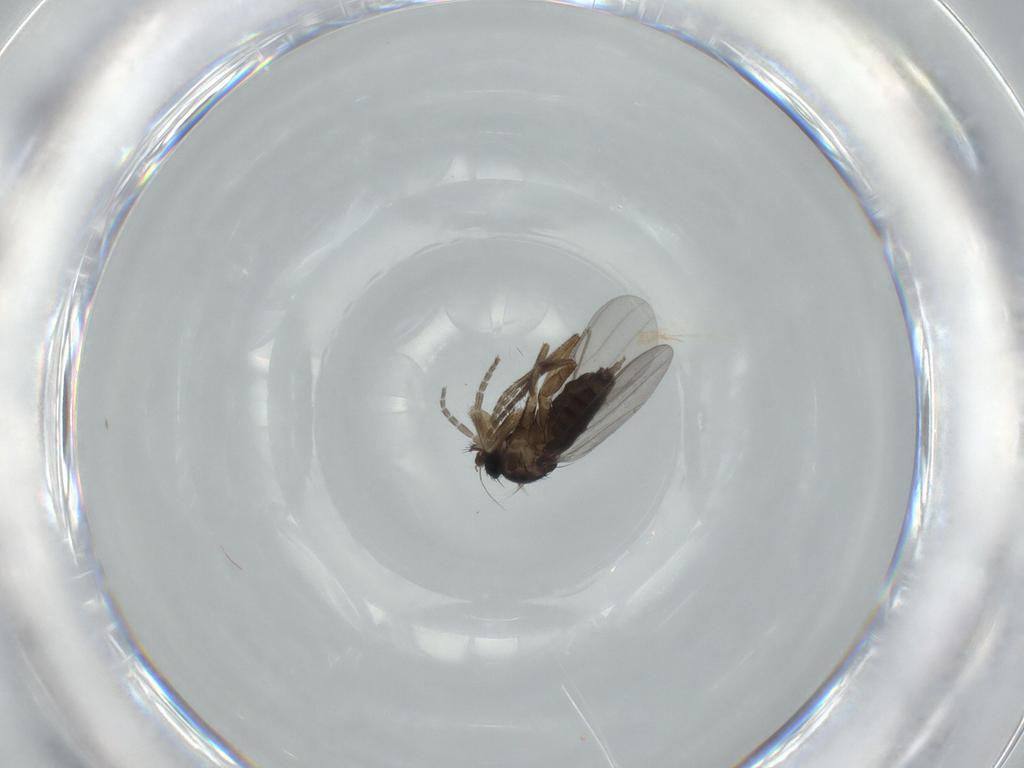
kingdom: Animalia
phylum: Arthropoda
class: Insecta
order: Diptera
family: Phoridae
